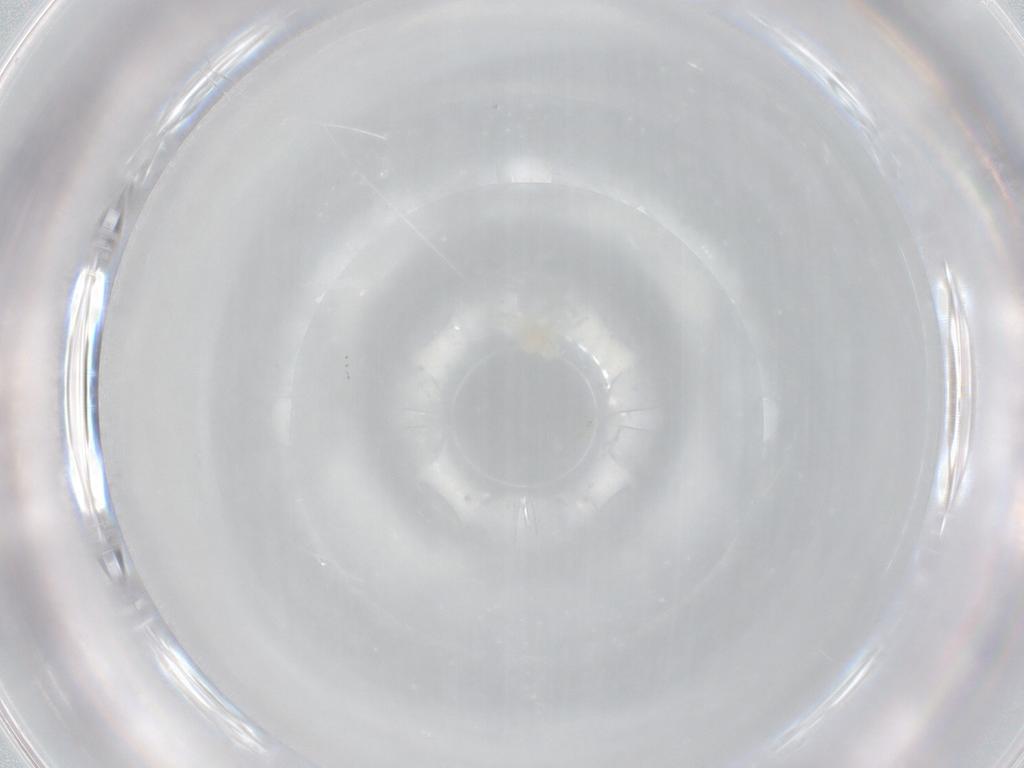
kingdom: Animalia
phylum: Arthropoda
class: Arachnida
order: Trombidiformes
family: Anystidae
